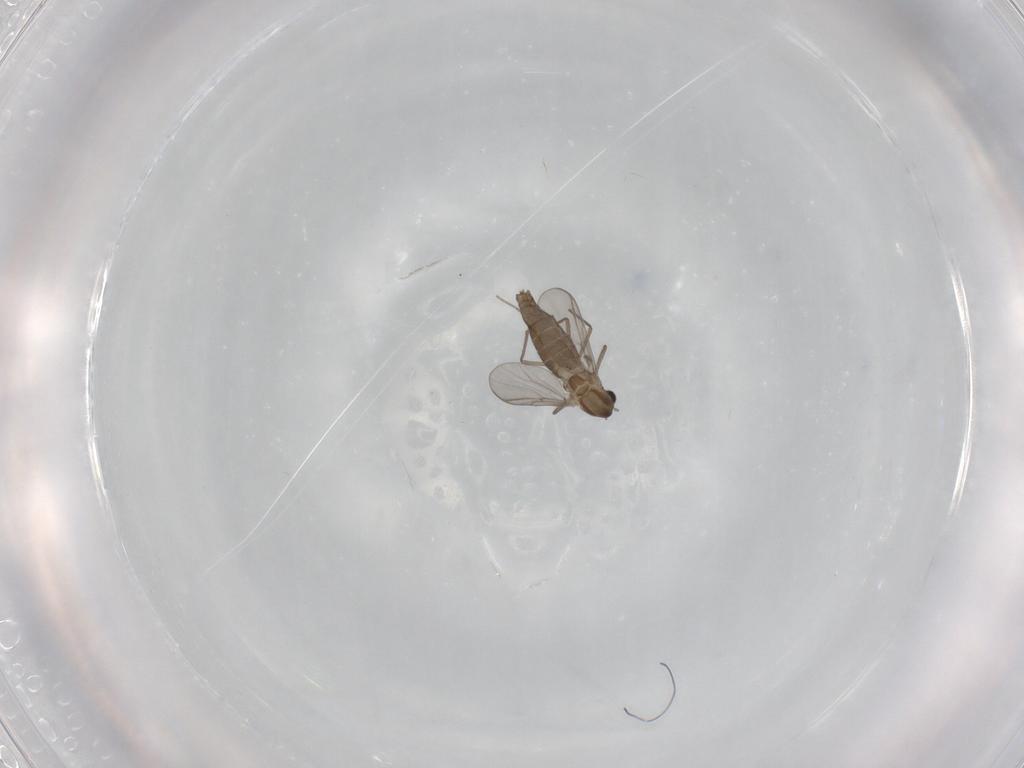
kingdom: Animalia
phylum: Arthropoda
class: Insecta
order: Diptera
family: Chironomidae
